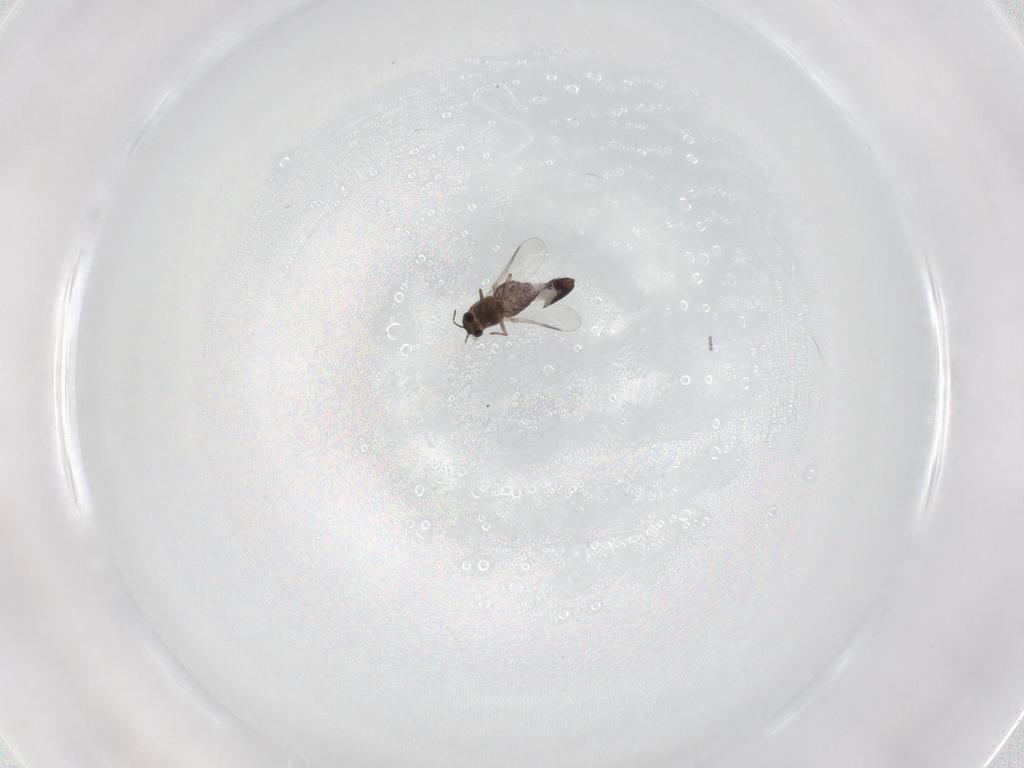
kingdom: Animalia
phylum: Arthropoda
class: Insecta
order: Diptera
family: Chironomidae
